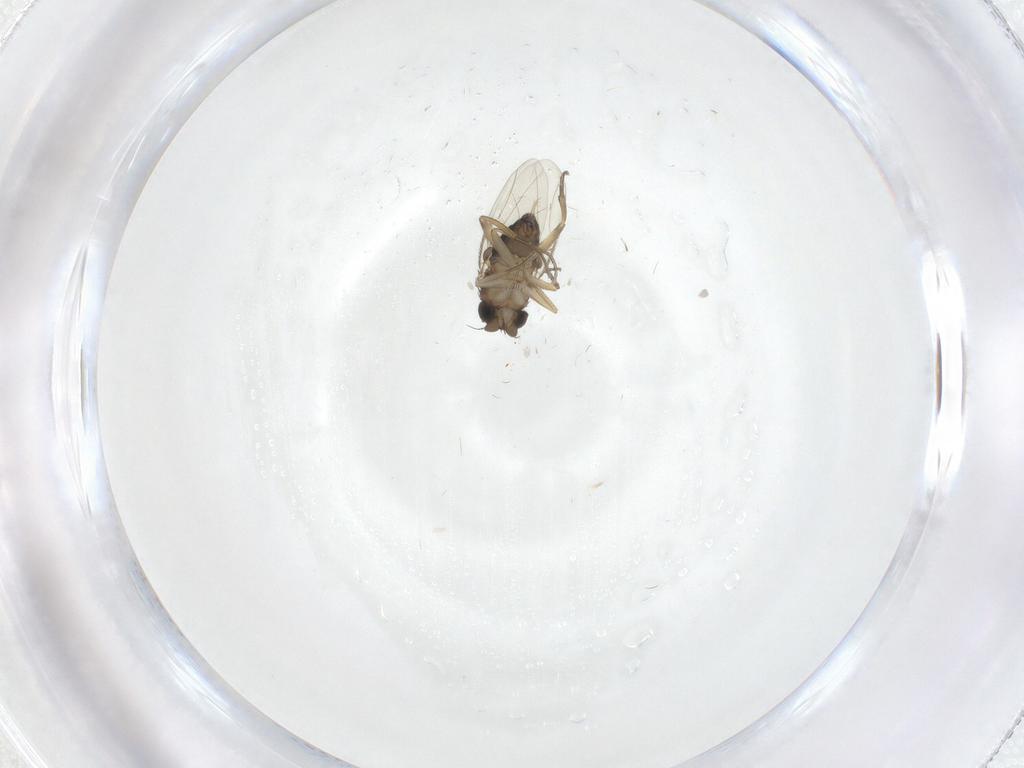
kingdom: Animalia
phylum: Arthropoda
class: Insecta
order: Diptera
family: Phoridae
